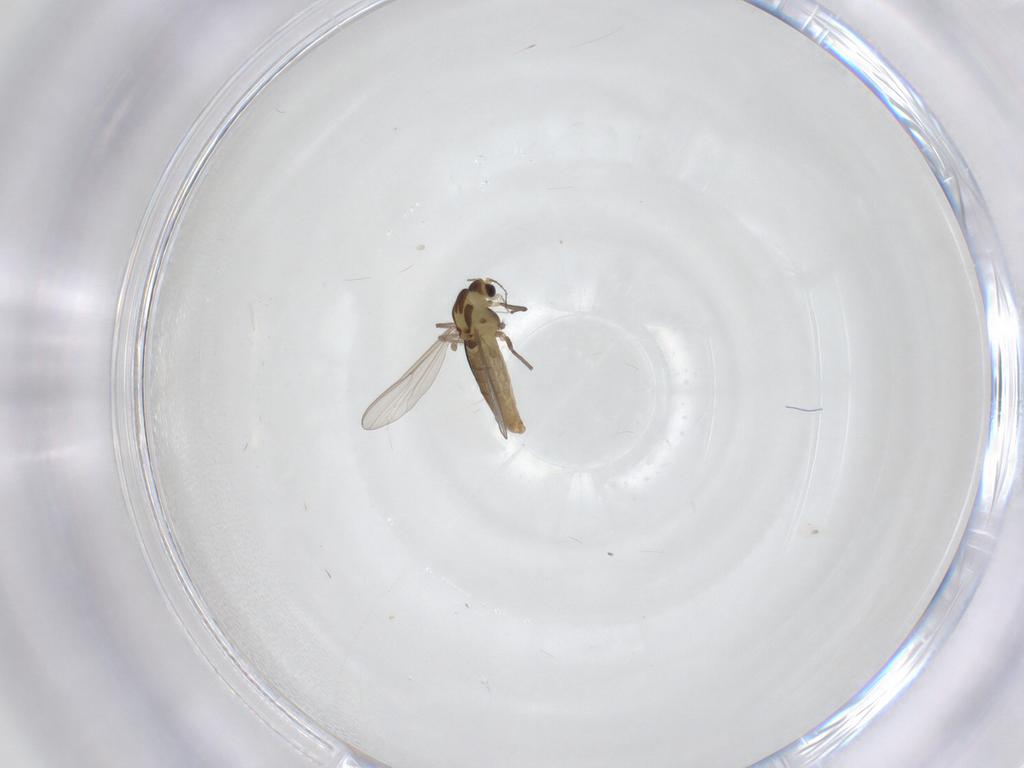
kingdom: Animalia
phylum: Arthropoda
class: Insecta
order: Diptera
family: Chironomidae
